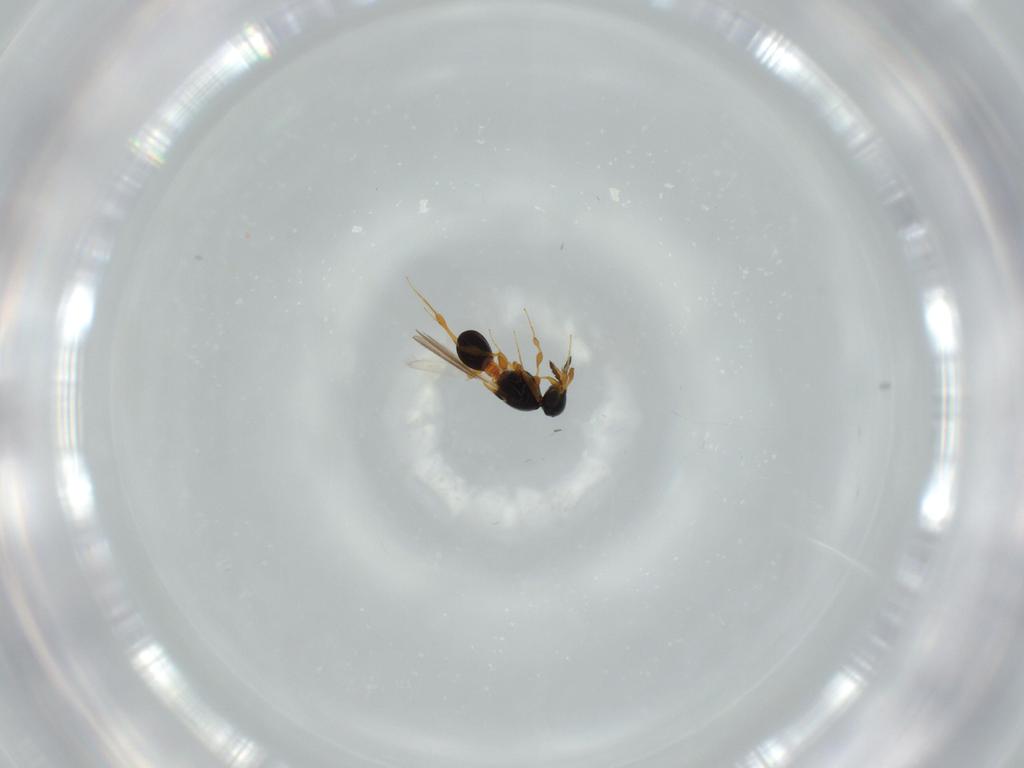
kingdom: Animalia
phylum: Arthropoda
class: Insecta
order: Hymenoptera
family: Platygastridae
